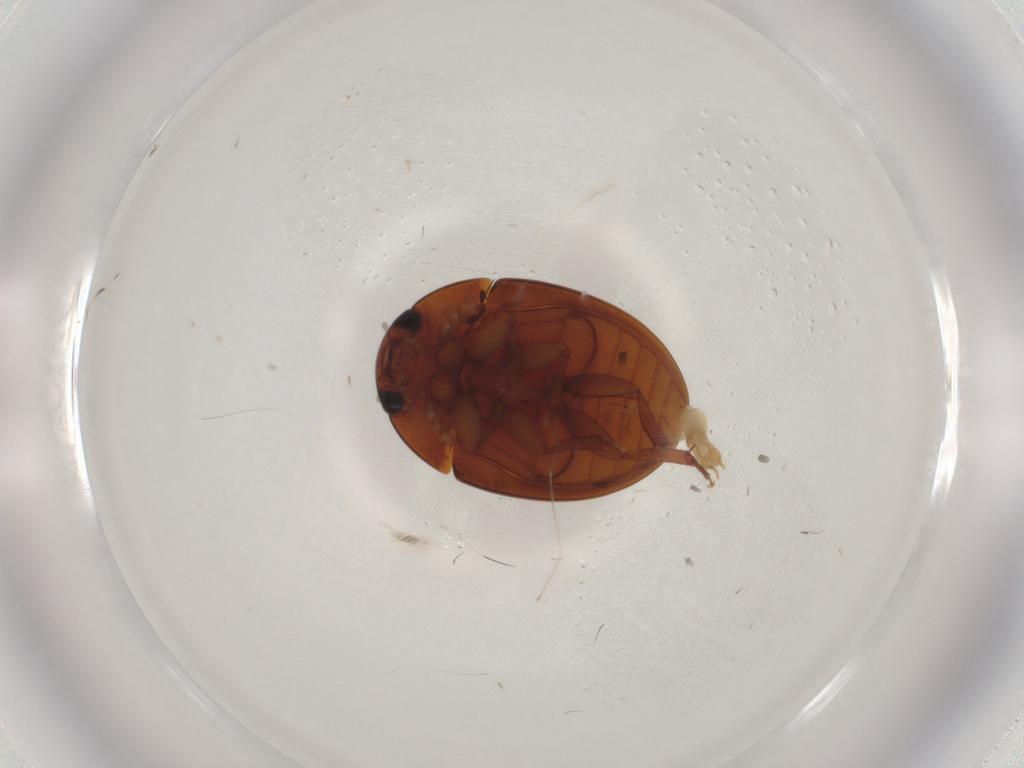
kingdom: Animalia
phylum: Arthropoda
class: Insecta
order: Coleoptera
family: Phalacridae
